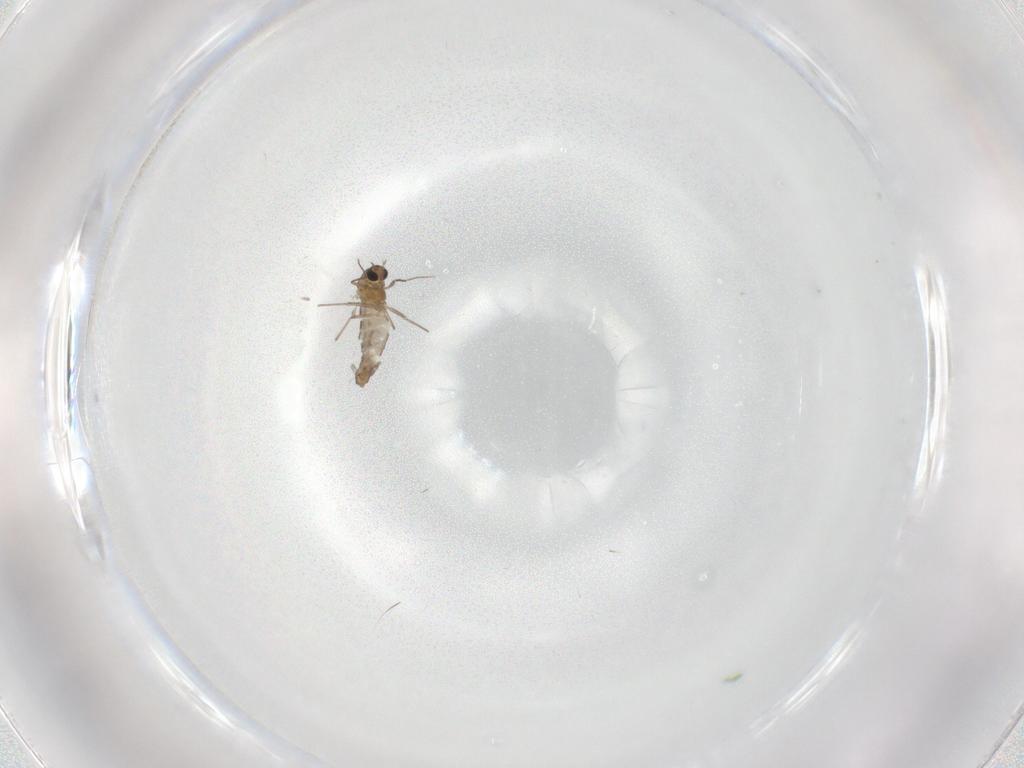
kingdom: Animalia
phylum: Arthropoda
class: Insecta
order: Diptera
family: Chironomidae
